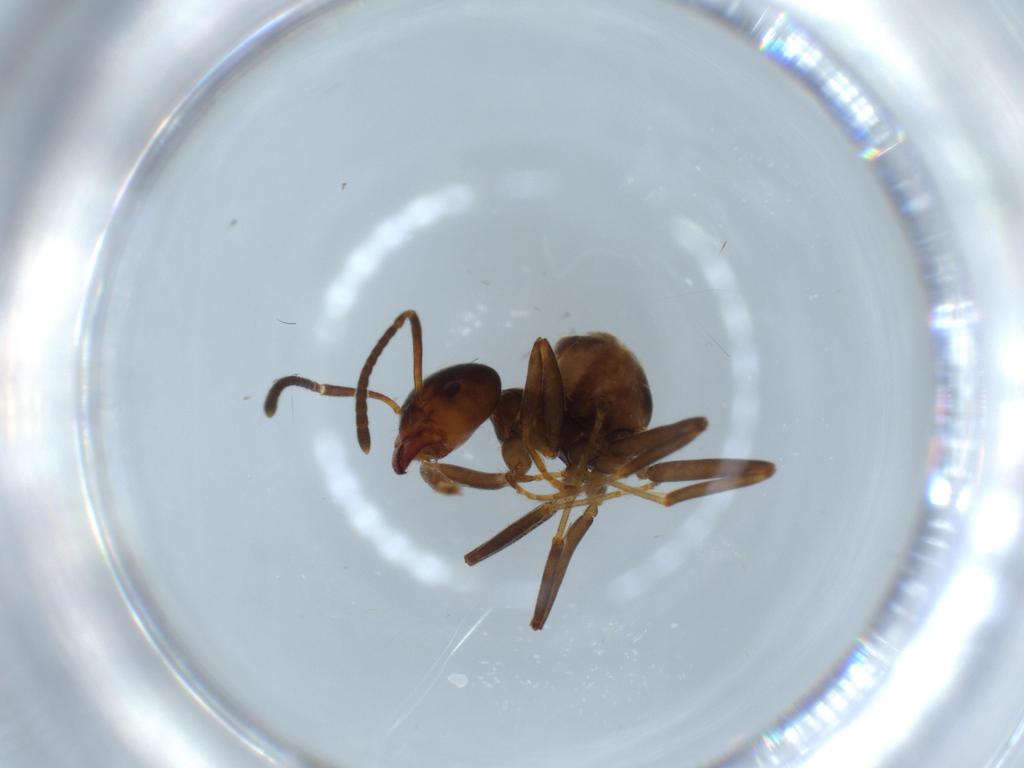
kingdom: Animalia
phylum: Arthropoda
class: Insecta
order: Hymenoptera
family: Formicidae
